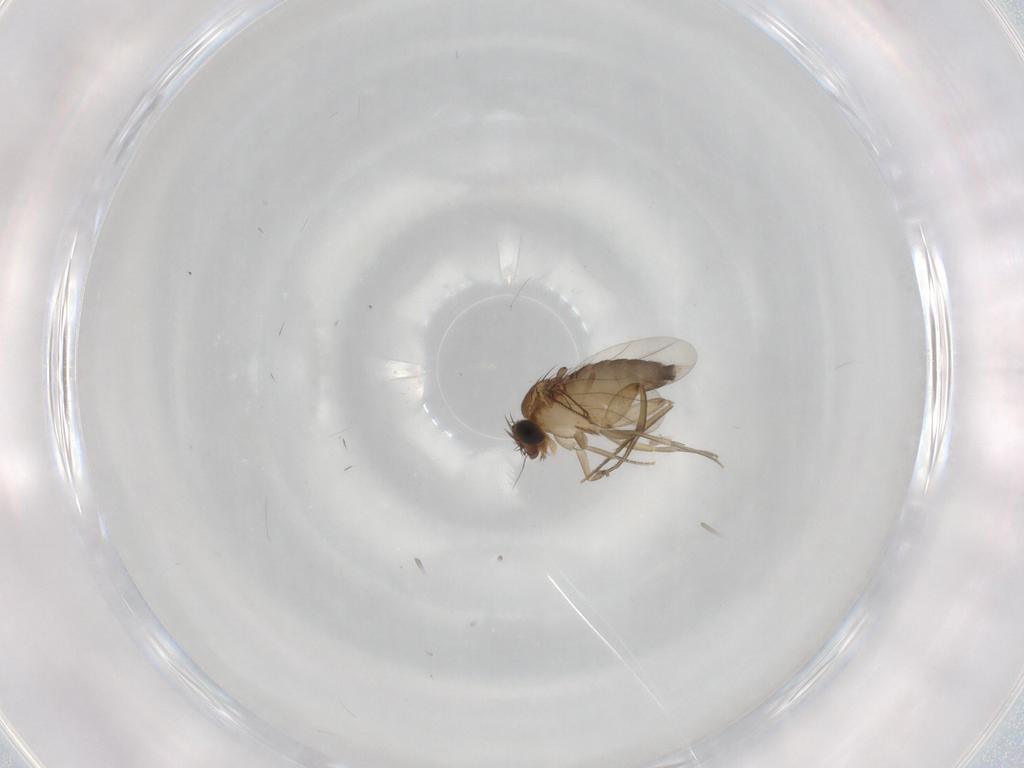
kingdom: Animalia
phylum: Arthropoda
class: Insecta
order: Diptera
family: Phoridae
